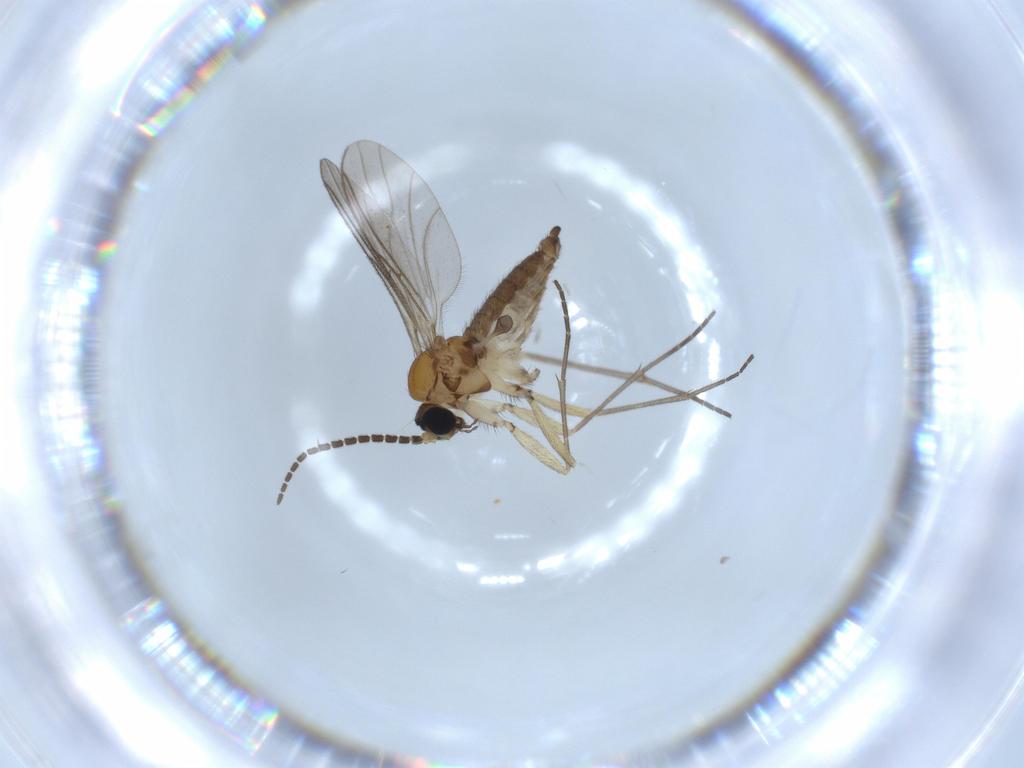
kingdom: Animalia
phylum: Arthropoda
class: Insecta
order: Diptera
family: Sciaridae
